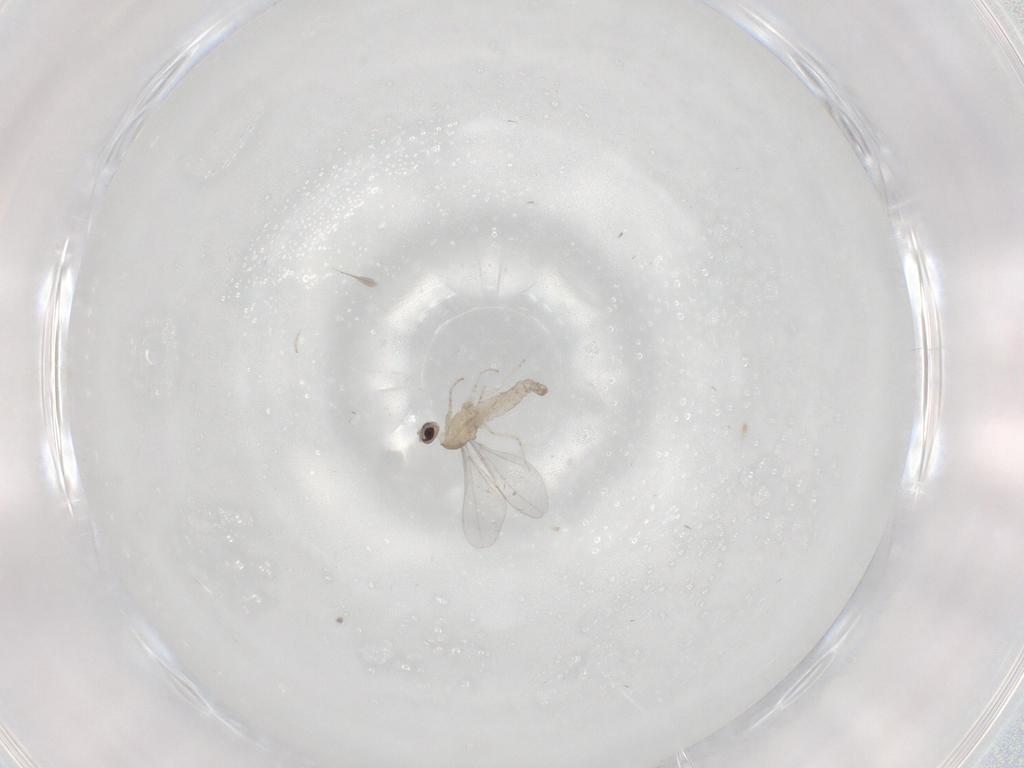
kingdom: Animalia
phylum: Arthropoda
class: Insecta
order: Diptera
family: Cecidomyiidae
